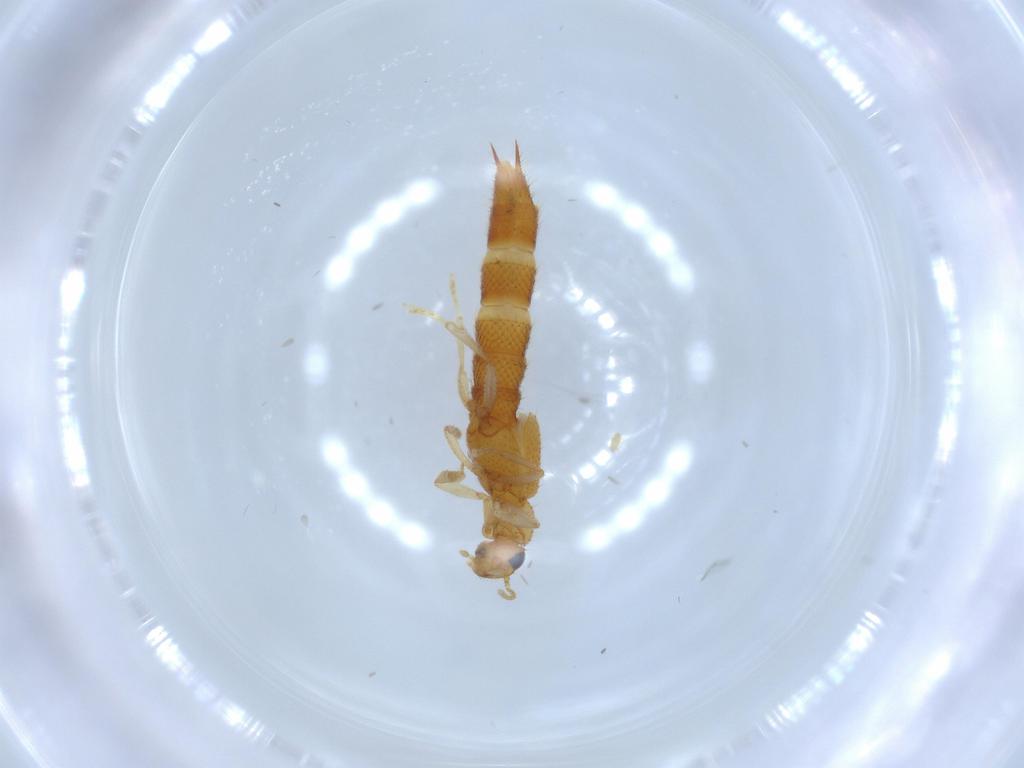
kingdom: Animalia
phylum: Arthropoda
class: Insecta
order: Coleoptera
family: Staphylinidae
